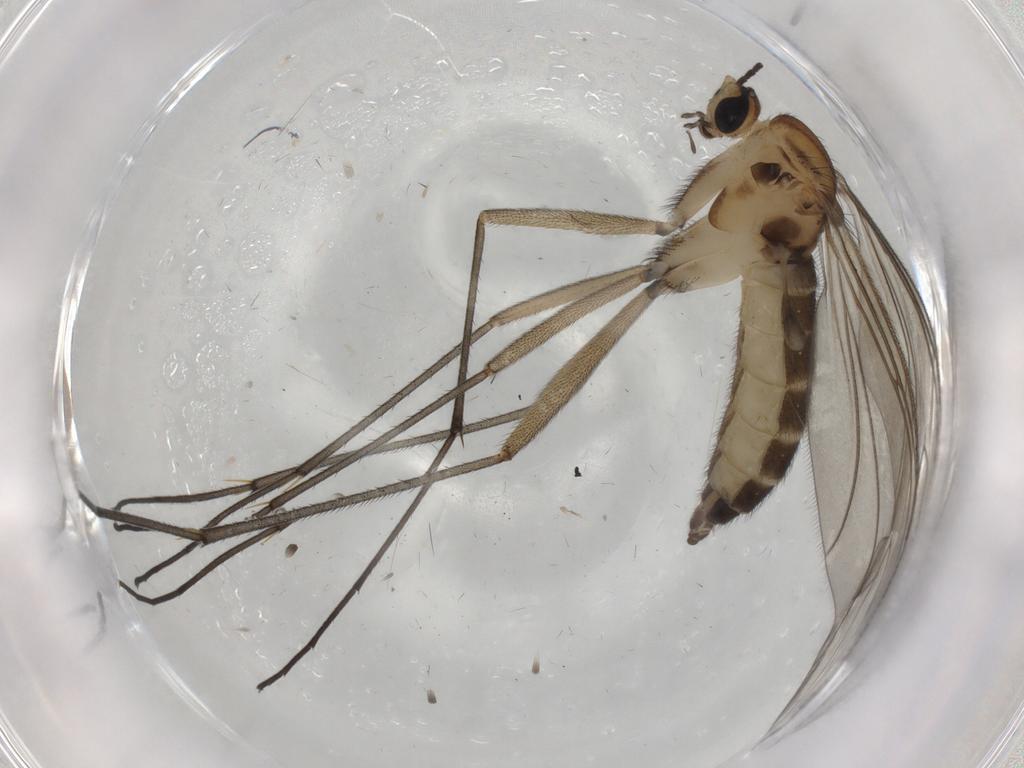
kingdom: Animalia
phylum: Arthropoda
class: Insecta
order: Diptera
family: Sciaridae
